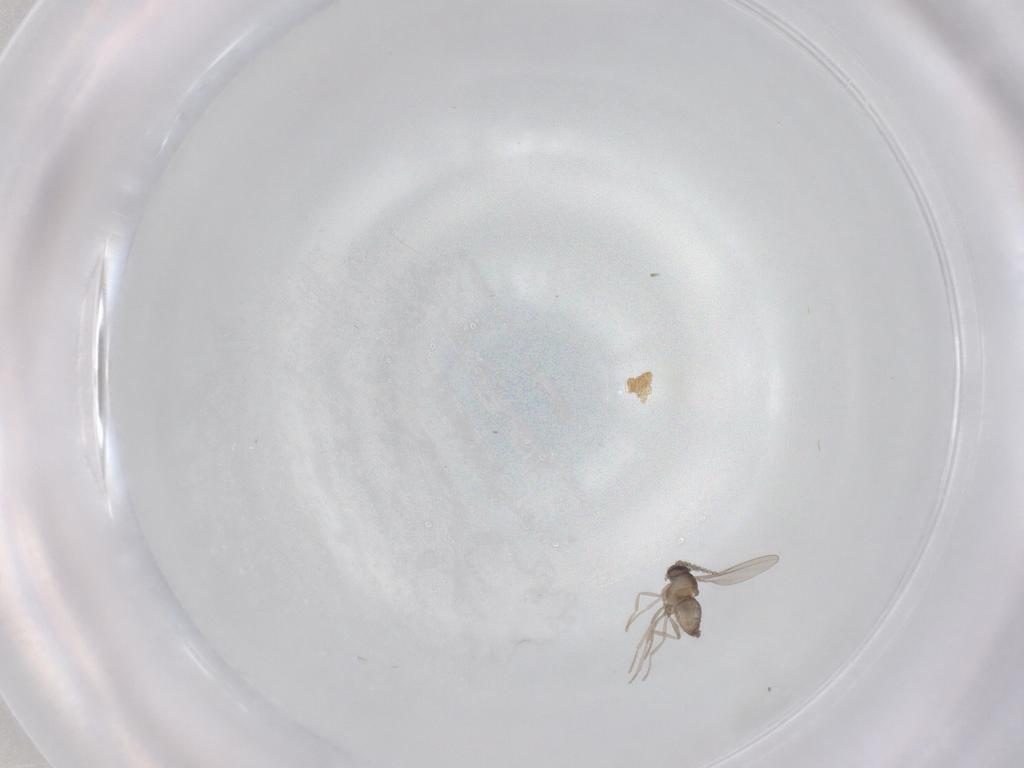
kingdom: Animalia
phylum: Arthropoda
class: Insecta
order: Diptera
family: Cecidomyiidae
